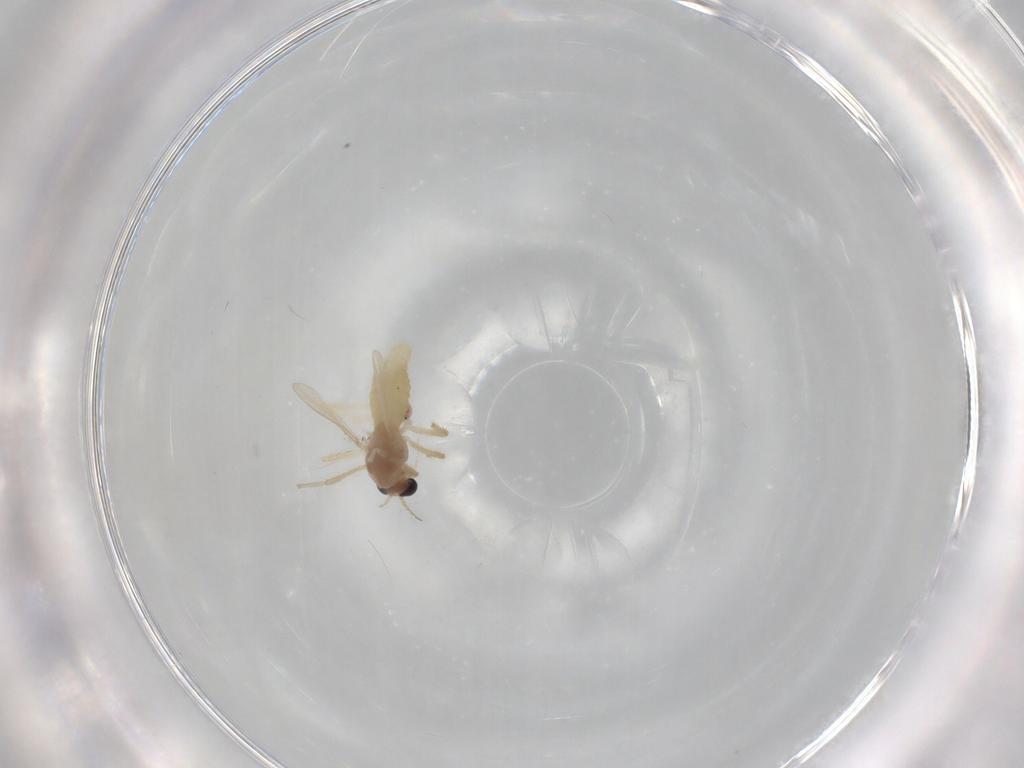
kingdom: Animalia
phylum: Arthropoda
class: Insecta
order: Diptera
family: Chironomidae
